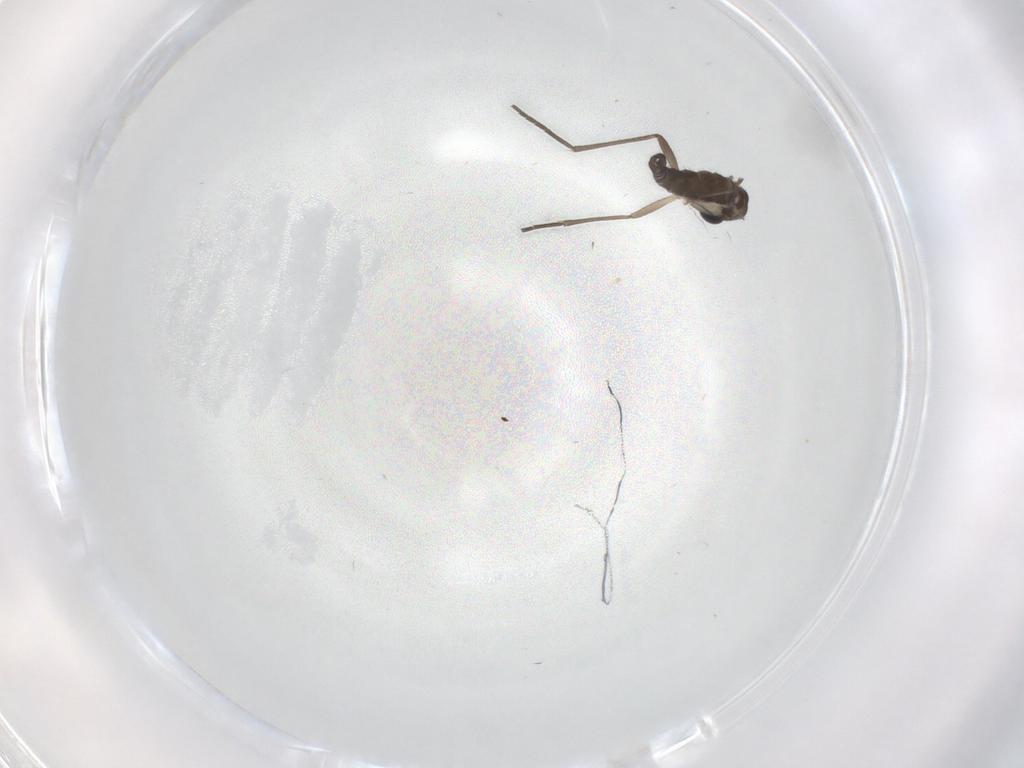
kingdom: Animalia
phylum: Arthropoda
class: Insecta
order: Diptera
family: Sciaridae
